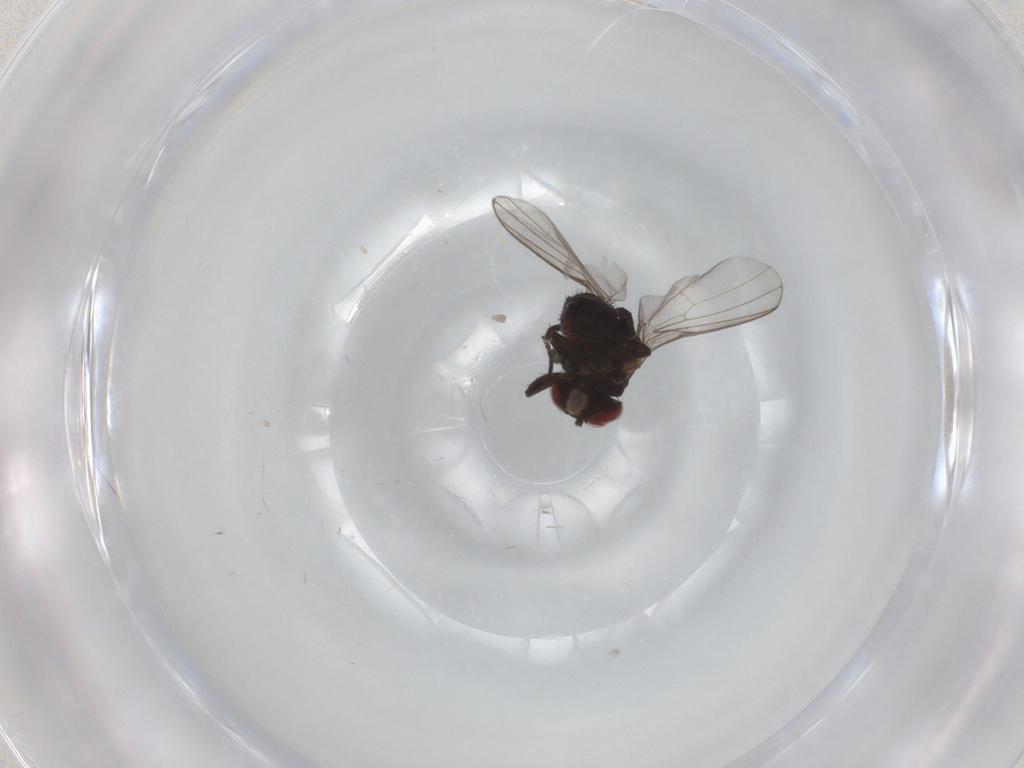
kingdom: Animalia
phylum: Arthropoda
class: Insecta
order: Diptera
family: Agromyzidae
